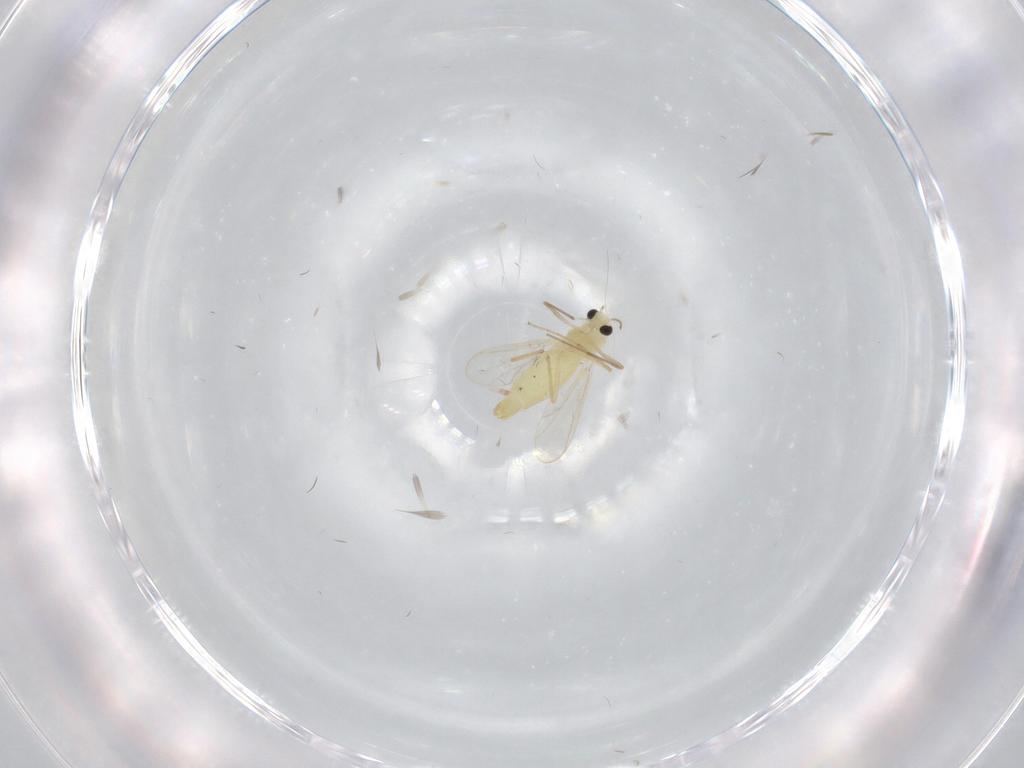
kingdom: Animalia
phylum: Arthropoda
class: Insecta
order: Diptera
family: Chironomidae
